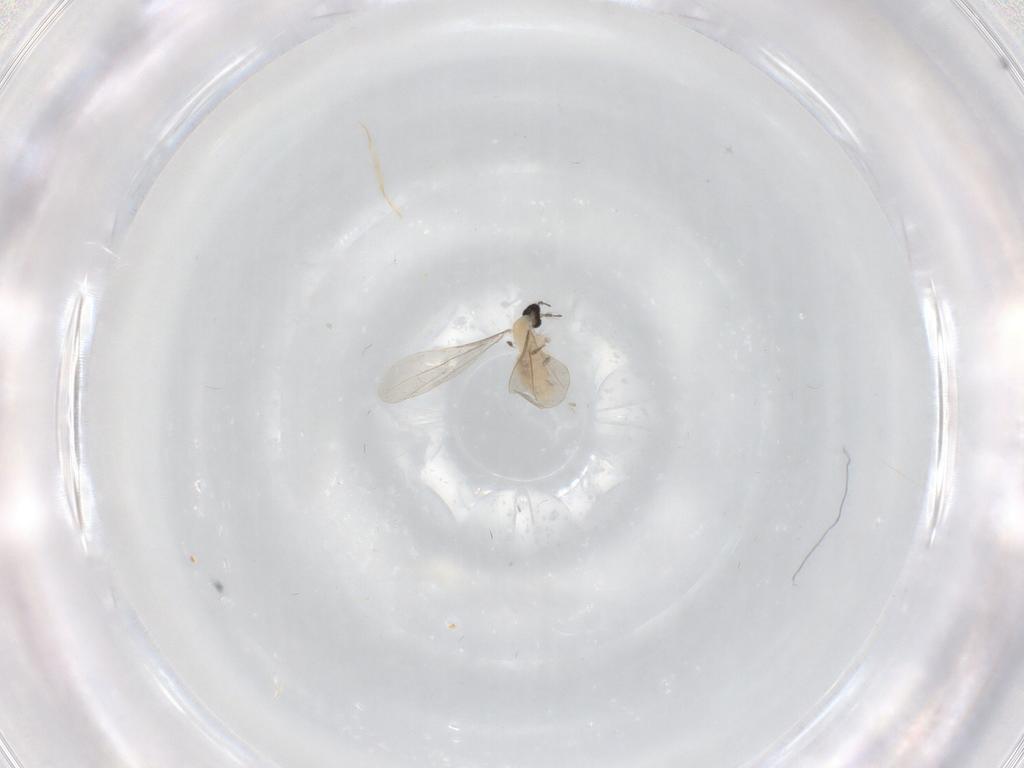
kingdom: Animalia
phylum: Arthropoda
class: Insecta
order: Diptera
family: Cecidomyiidae
